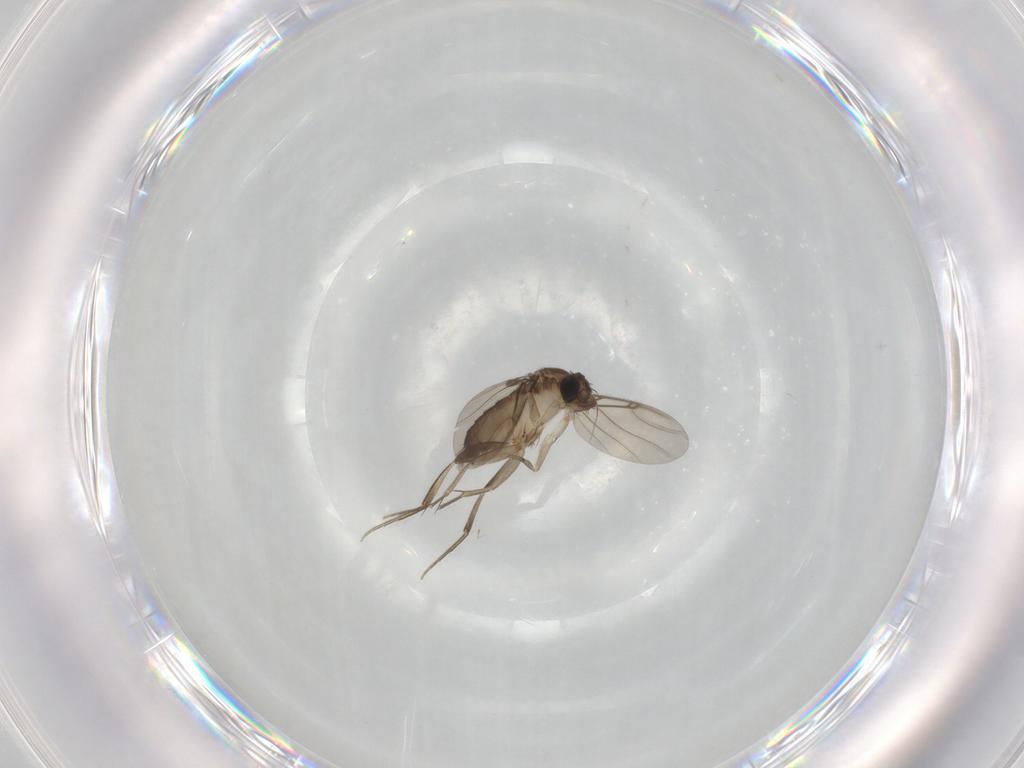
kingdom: Animalia
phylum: Arthropoda
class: Insecta
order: Diptera
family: Phoridae
